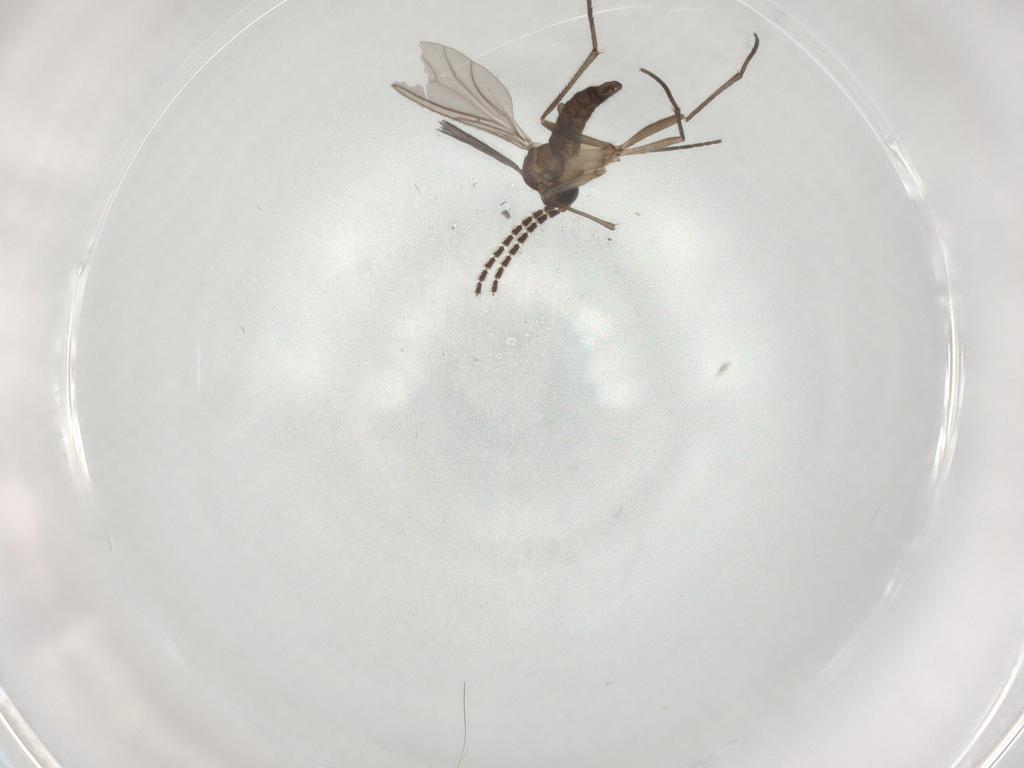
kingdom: Animalia
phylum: Arthropoda
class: Insecta
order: Diptera
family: Sciaridae
